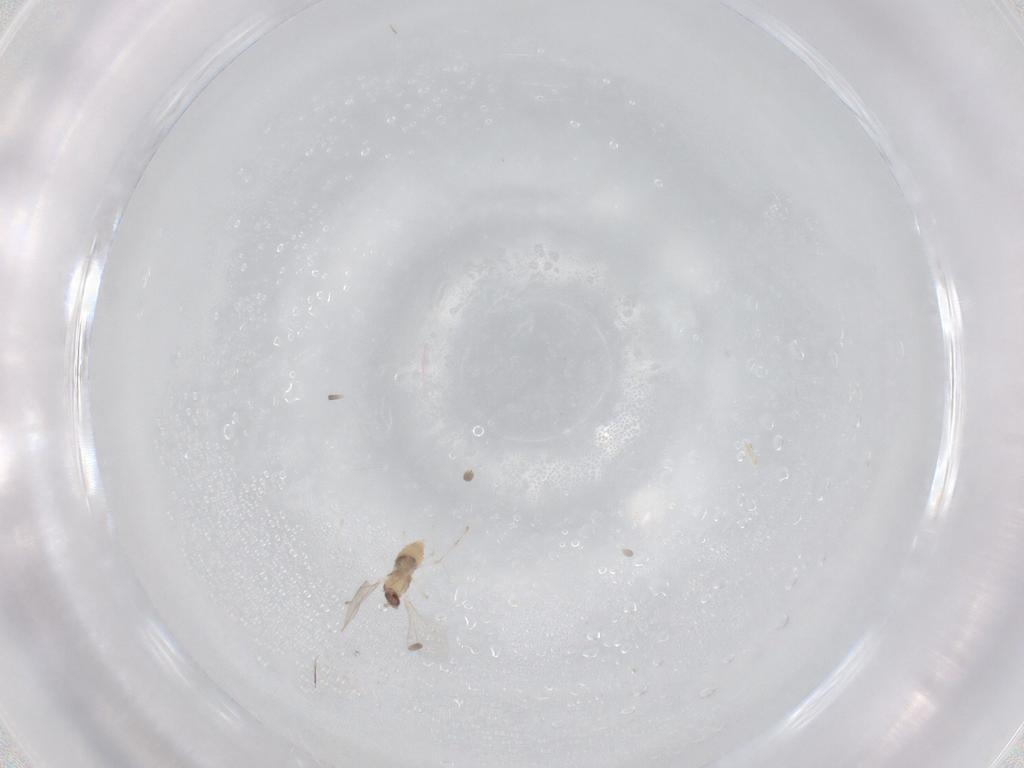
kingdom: Animalia
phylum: Arthropoda
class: Insecta
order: Diptera
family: Cecidomyiidae
